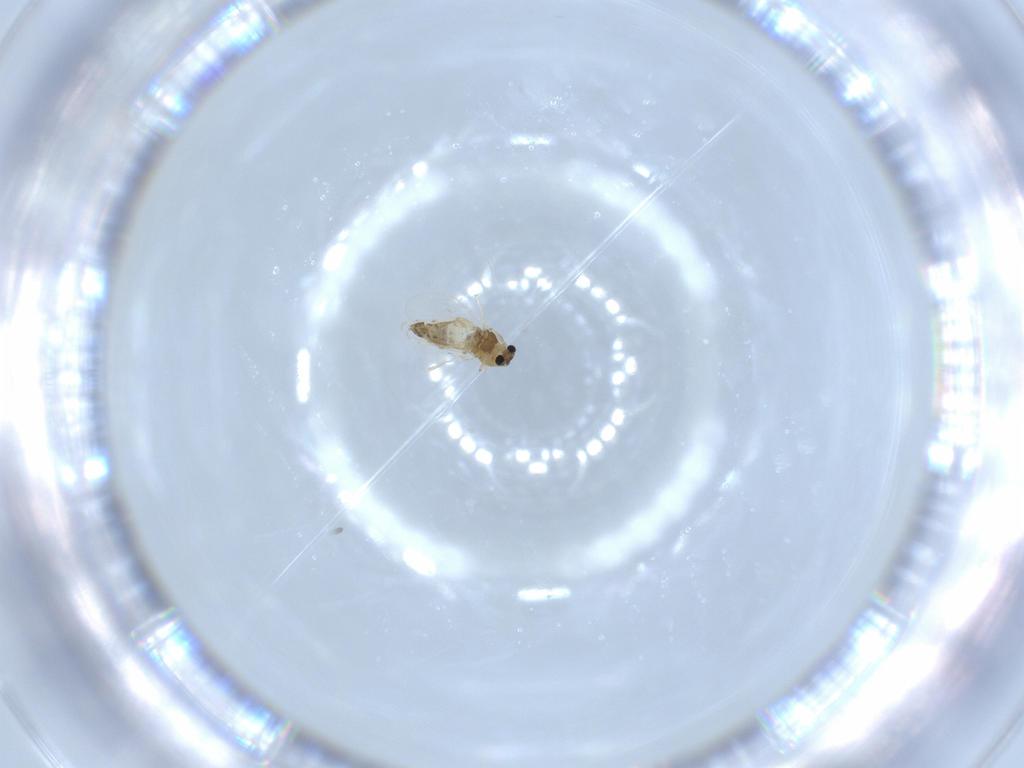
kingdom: Animalia
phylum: Arthropoda
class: Insecta
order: Diptera
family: Chironomidae
